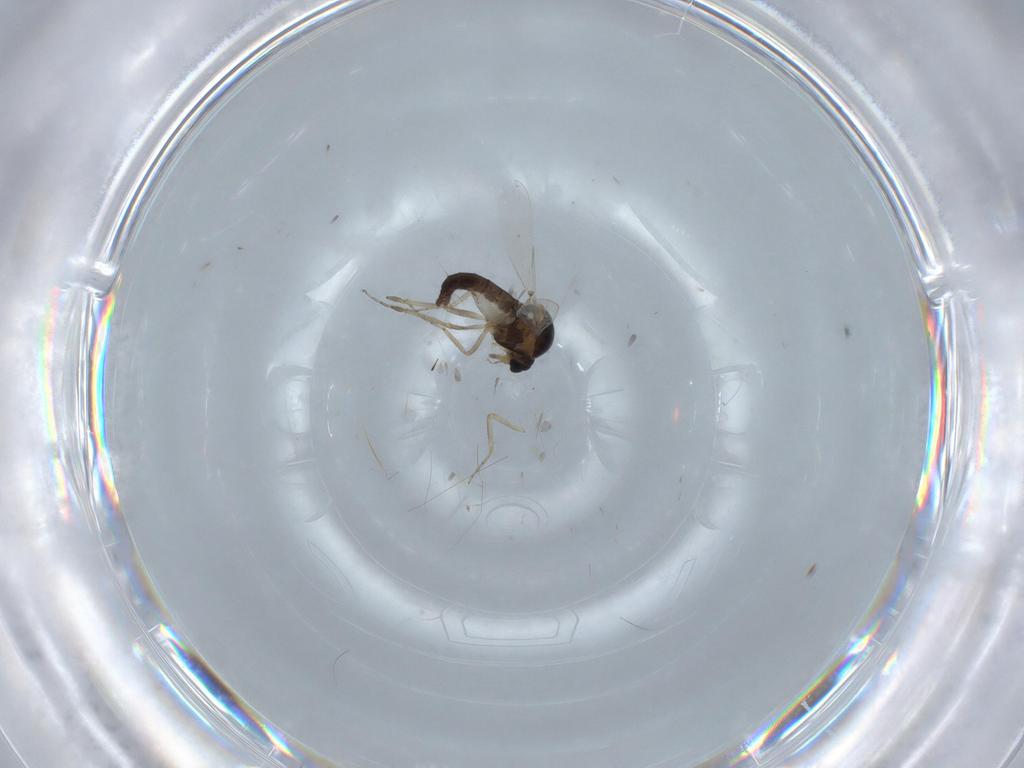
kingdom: Animalia
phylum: Arthropoda
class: Insecta
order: Diptera
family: Ceratopogonidae
